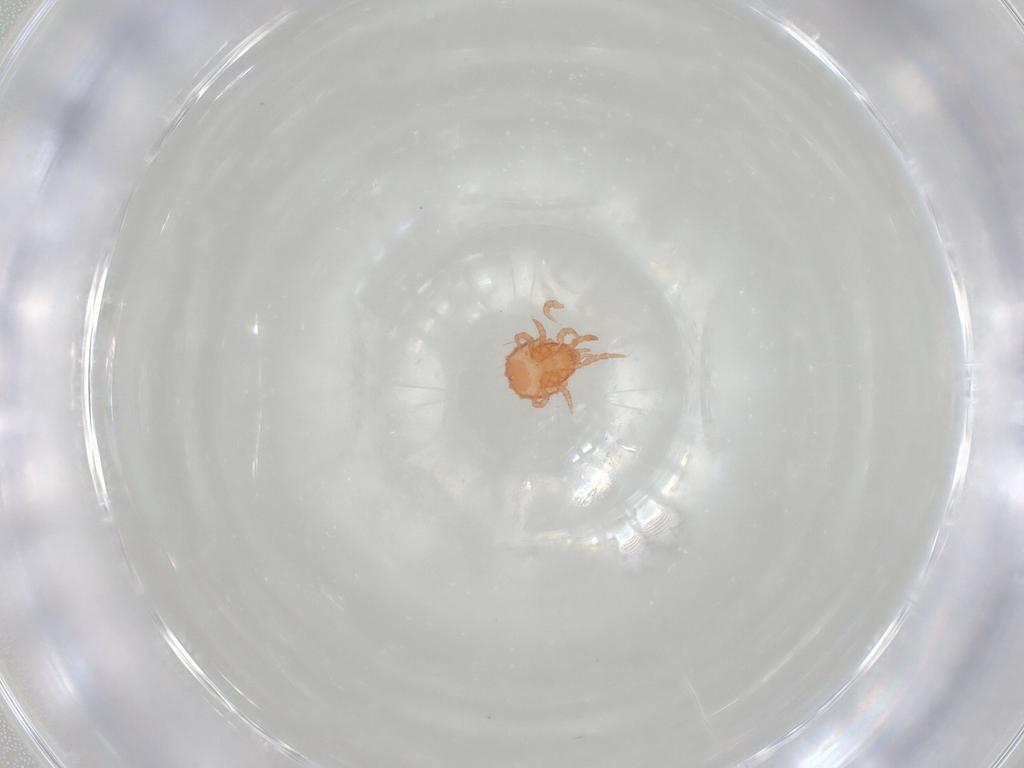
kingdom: Animalia
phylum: Arthropoda
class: Arachnida
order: Mesostigmata
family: Sejidae
